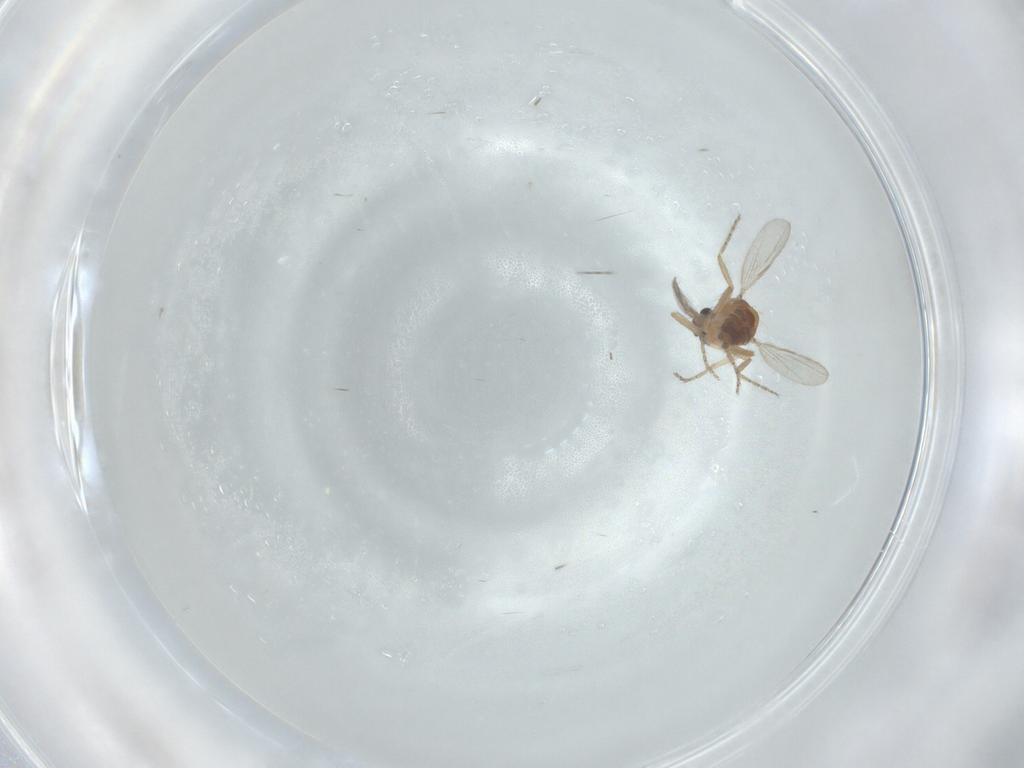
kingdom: Animalia
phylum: Arthropoda
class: Insecta
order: Diptera
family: Ceratopogonidae
